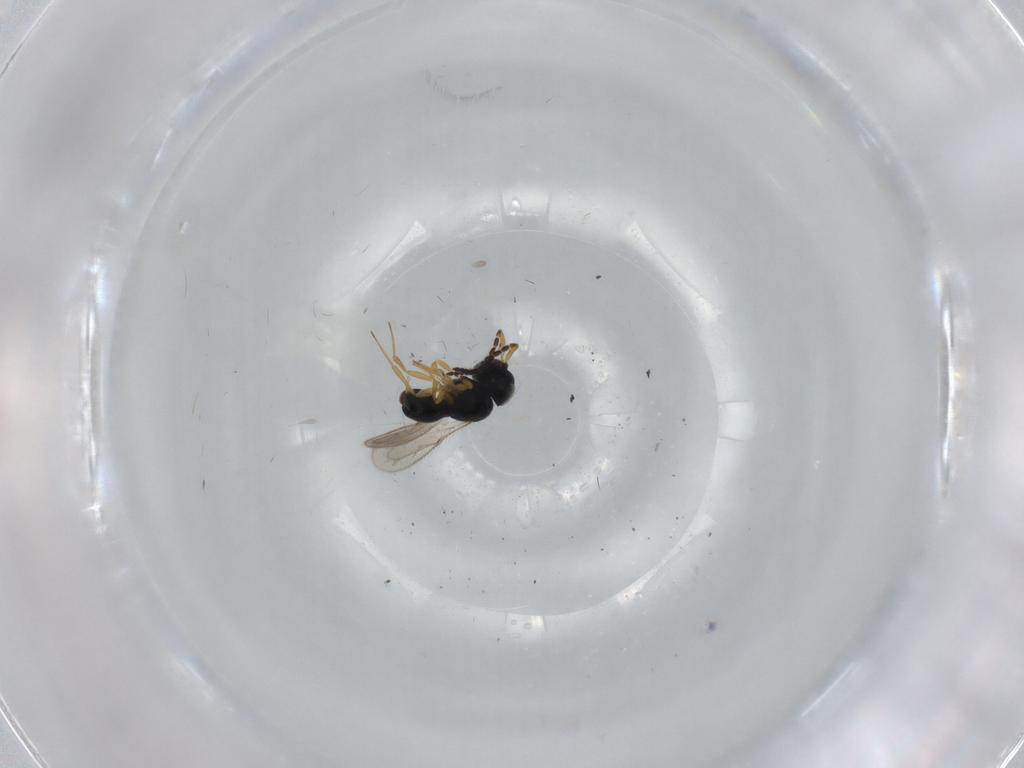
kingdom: Animalia
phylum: Arthropoda
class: Insecta
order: Hymenoptera
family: Scelionidae
